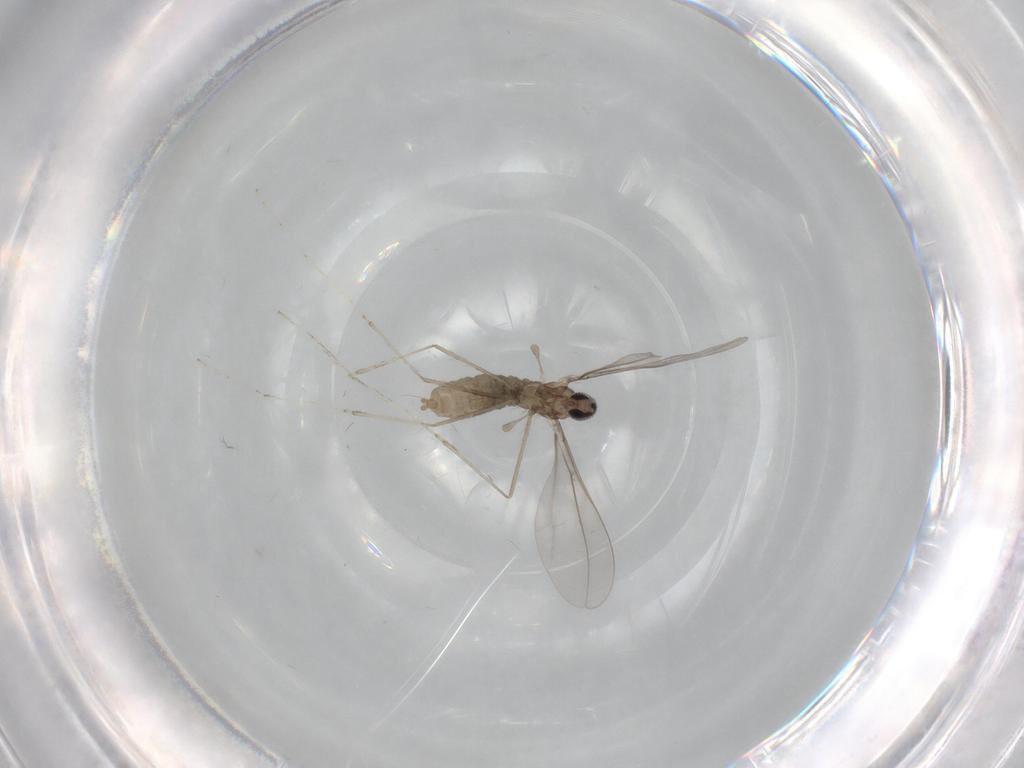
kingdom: Animalia
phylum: Arthropoda
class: Insecta
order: Diptera
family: Cecidomyiidae
